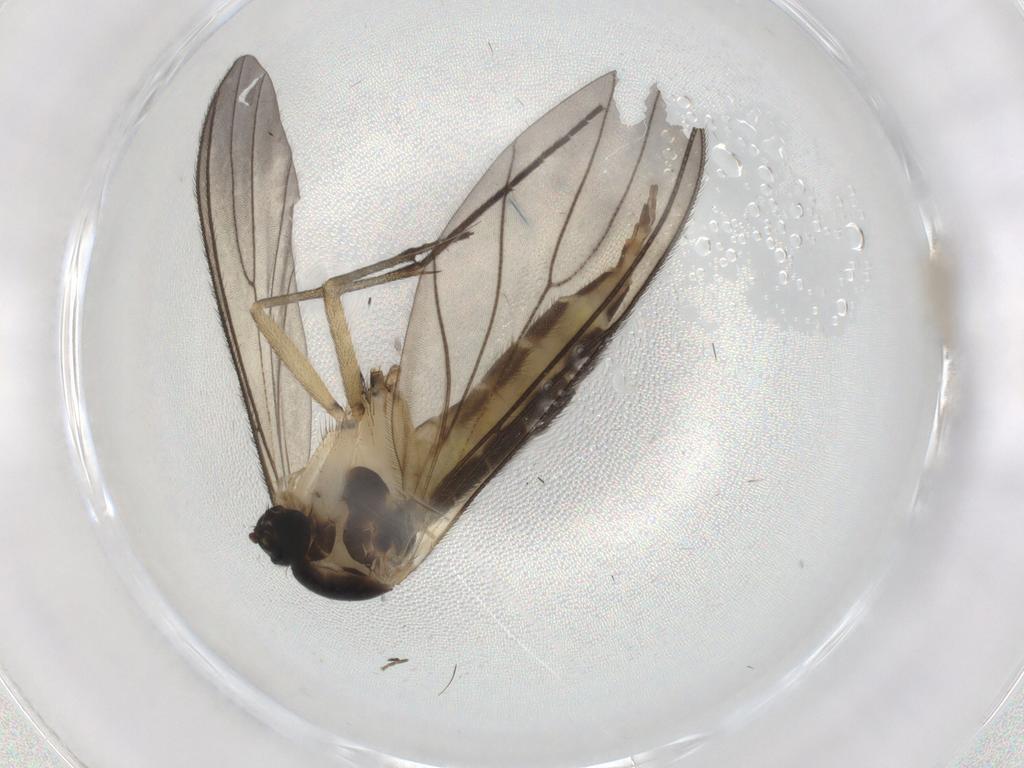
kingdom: Animalia
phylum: Arthropoda
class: Insecta
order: Diptera
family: Sciaridae
